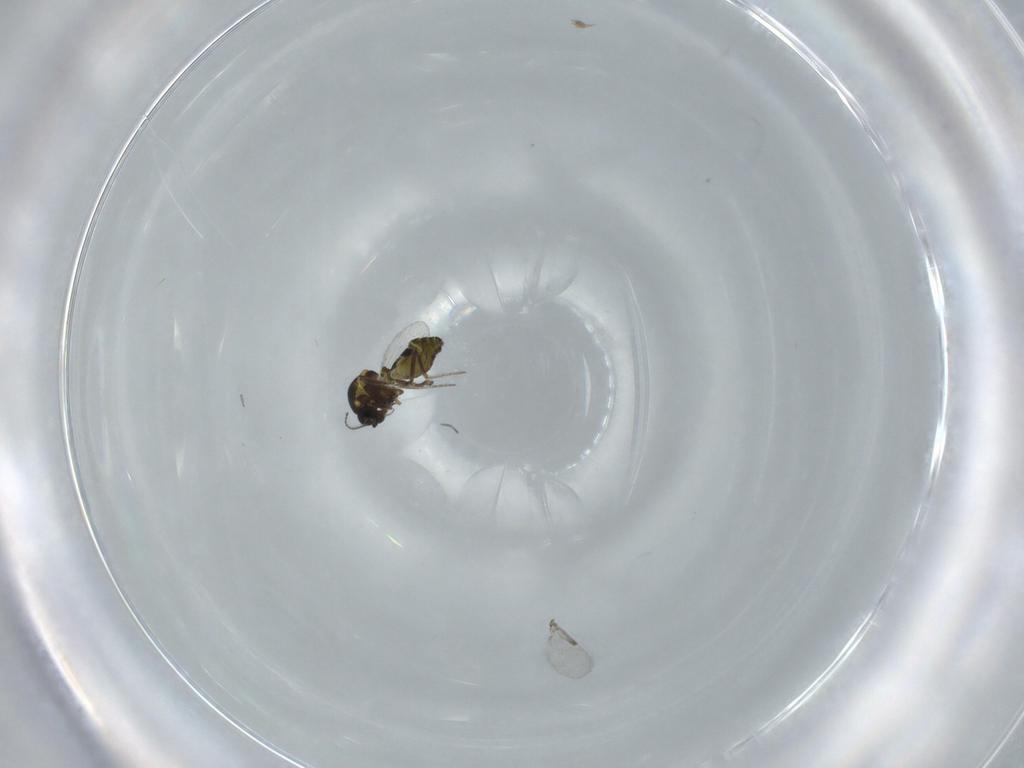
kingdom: Animalia
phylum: Arthropoda
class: Insecta
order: Diptera
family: Ceratopogonidae
